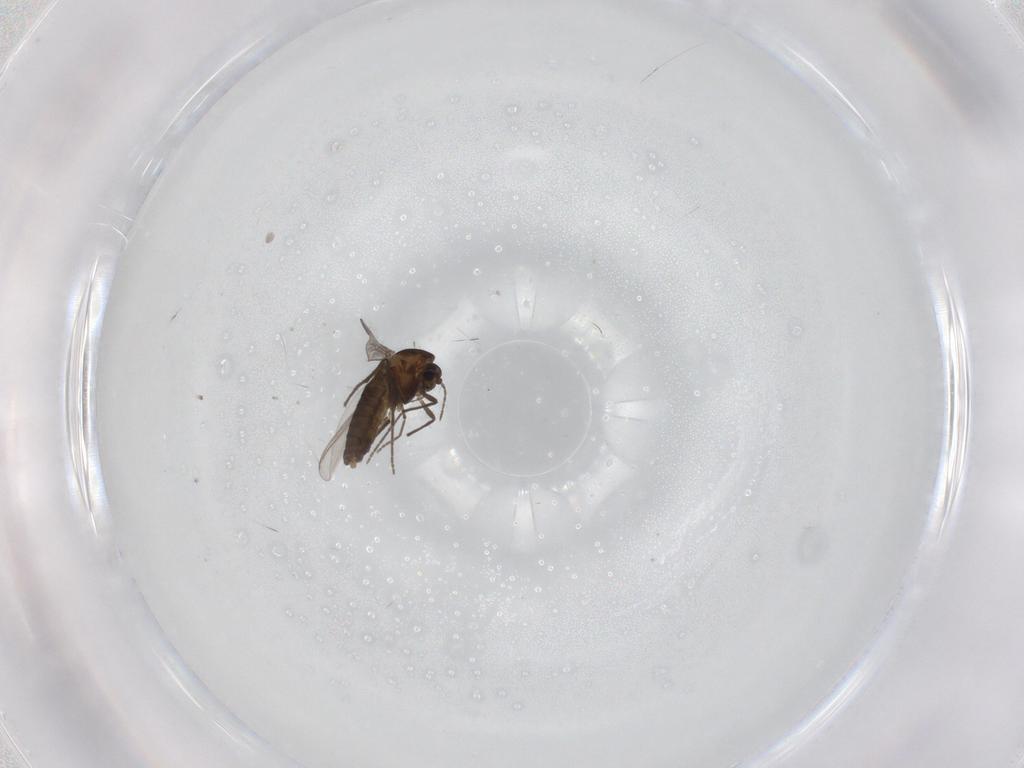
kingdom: Animalia
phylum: Arthropoda
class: Insecta
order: Diptera
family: Chironomidae
